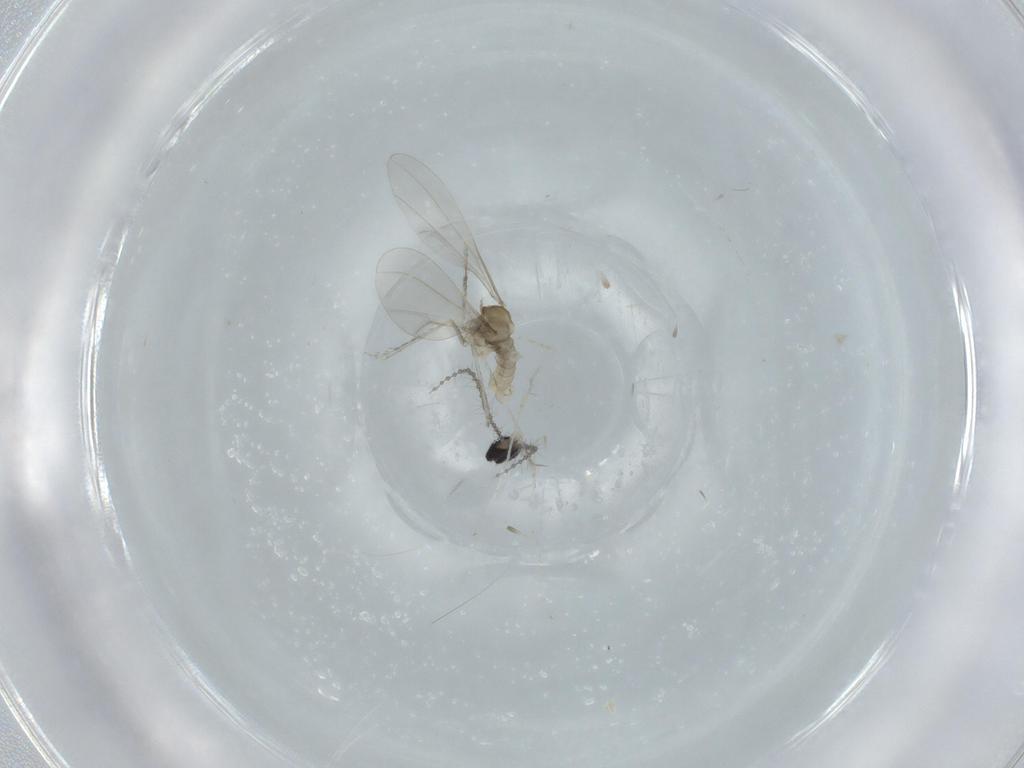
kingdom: Animalia
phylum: Arthropoda
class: Insecta
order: Diptera
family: Cecidomyiidae
